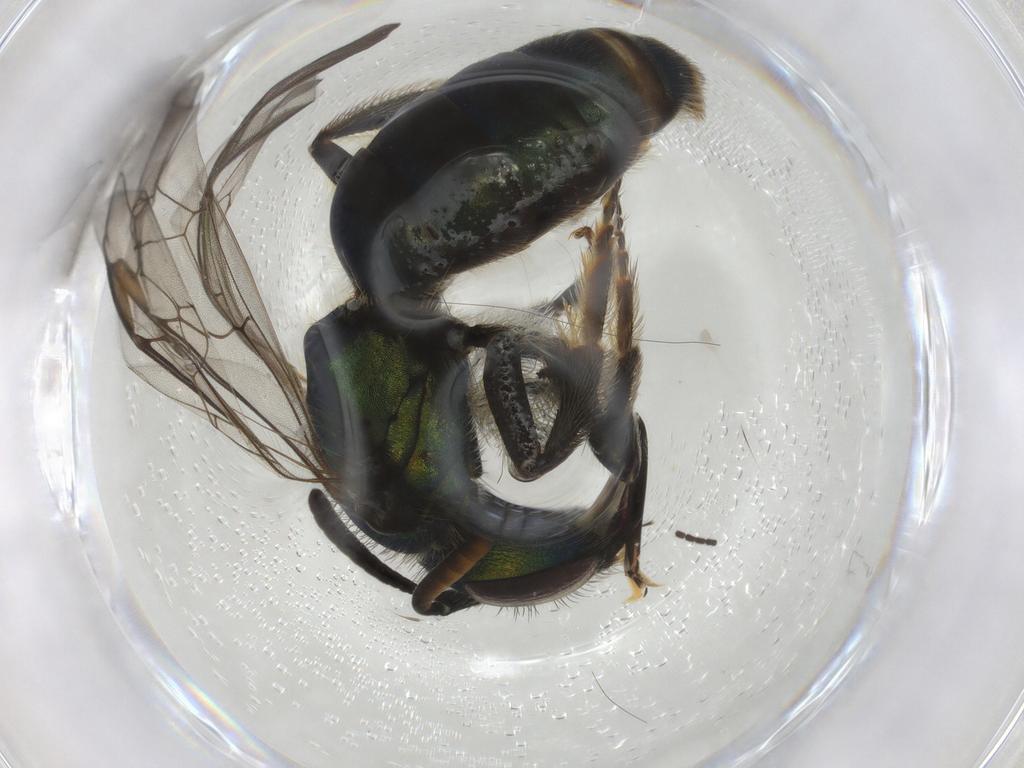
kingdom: Animalia
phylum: Arthropoda
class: Insecta
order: Hymenoptera
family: Halictidae
